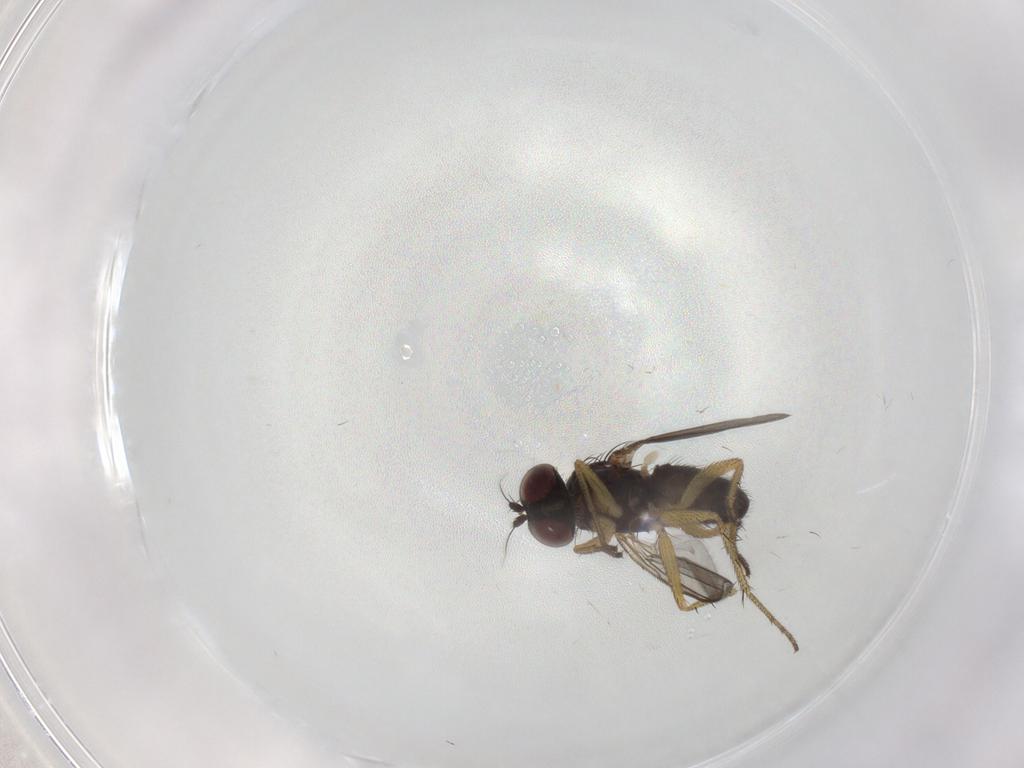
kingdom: Animalia
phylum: Arthropoda
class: Insecta
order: Diptera
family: Dolichopodidae
